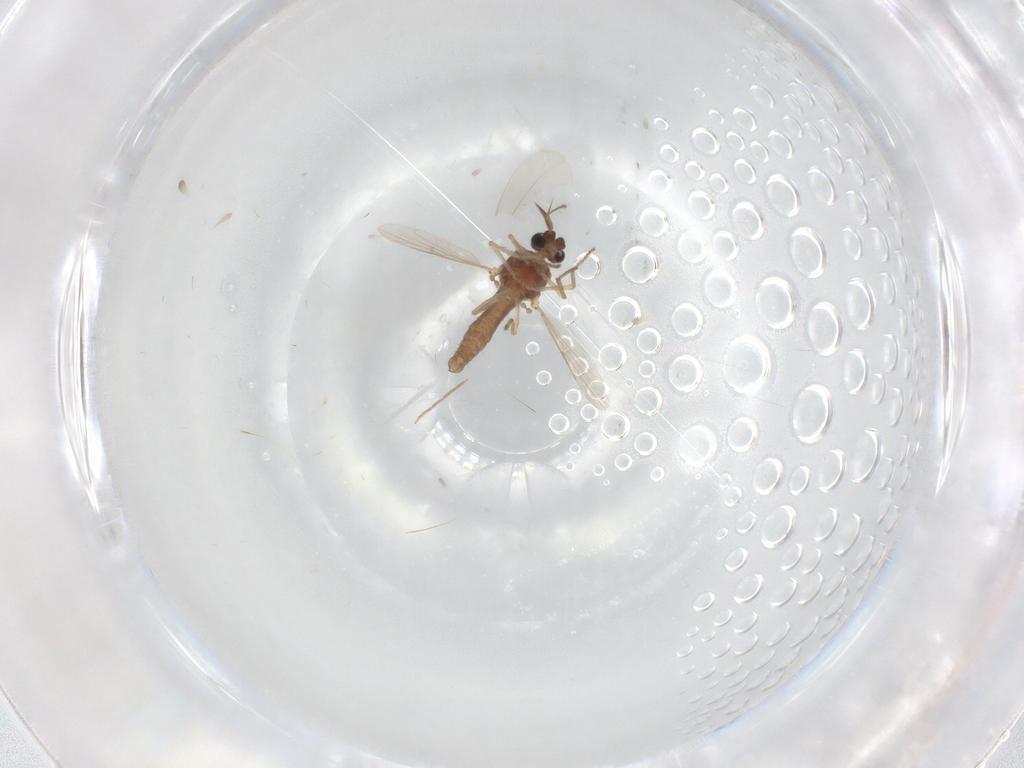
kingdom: Animalia
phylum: Arthropoda
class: Insecta
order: Diptera
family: Ceratopogonidae
